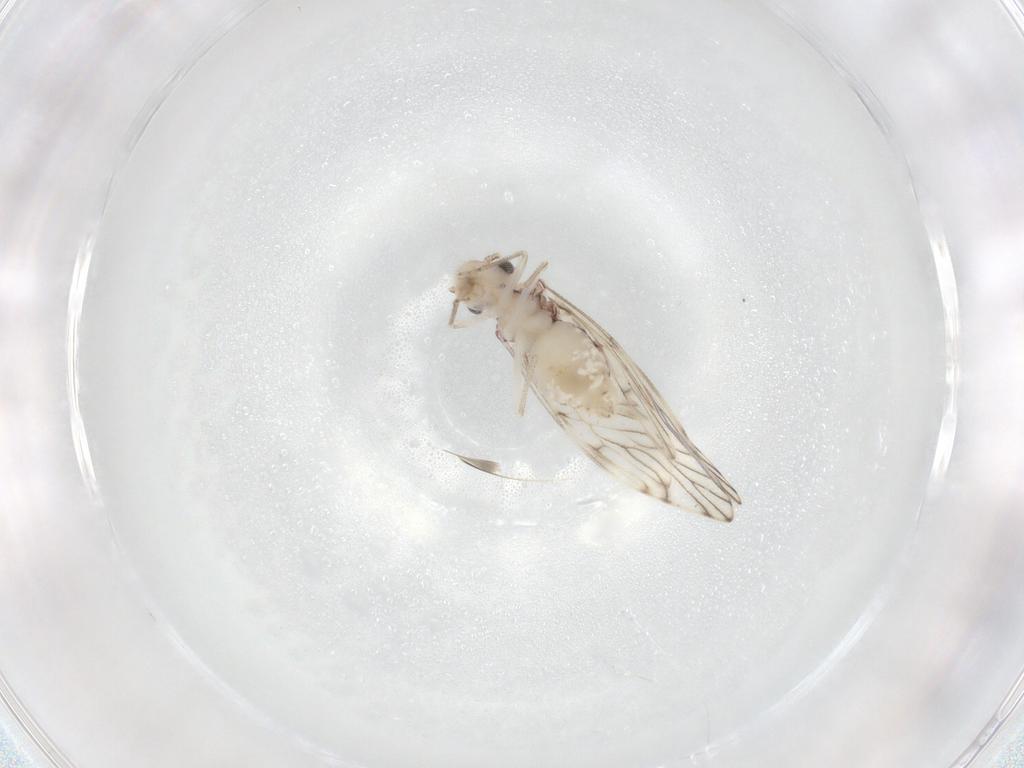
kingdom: Animalia
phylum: Arthropoda
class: Insecta
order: Psocodea
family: Philotarsidae
